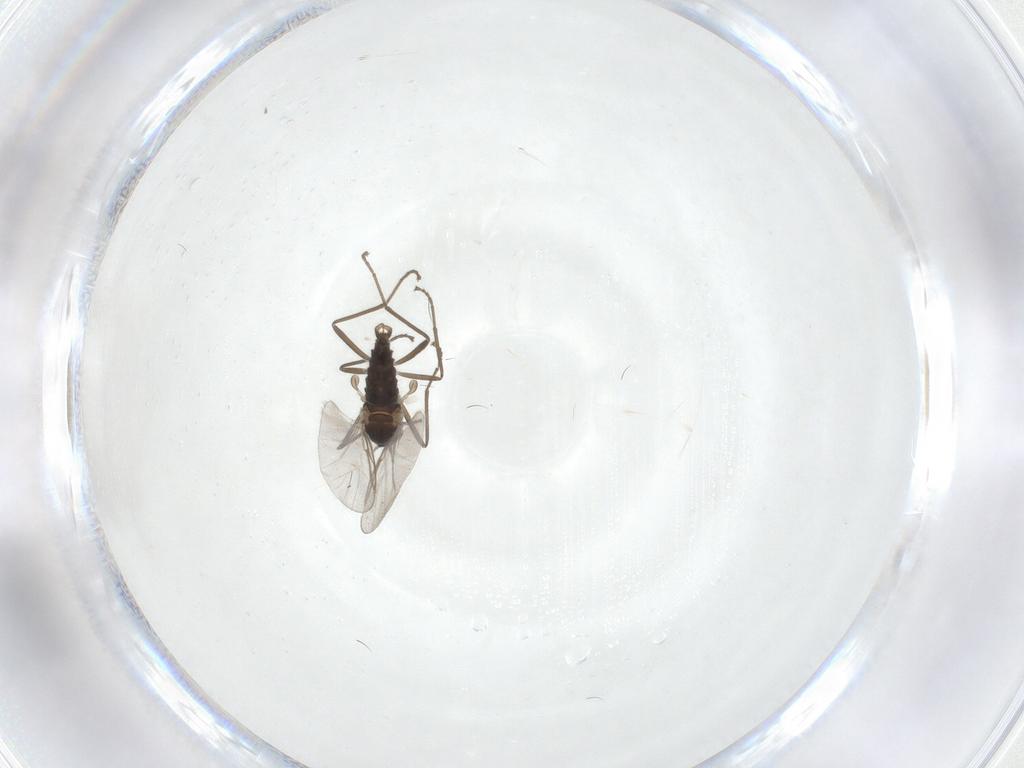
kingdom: Animalia
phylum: Arthropoda
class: Insecta
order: Diptera
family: Cecidomyiidae
